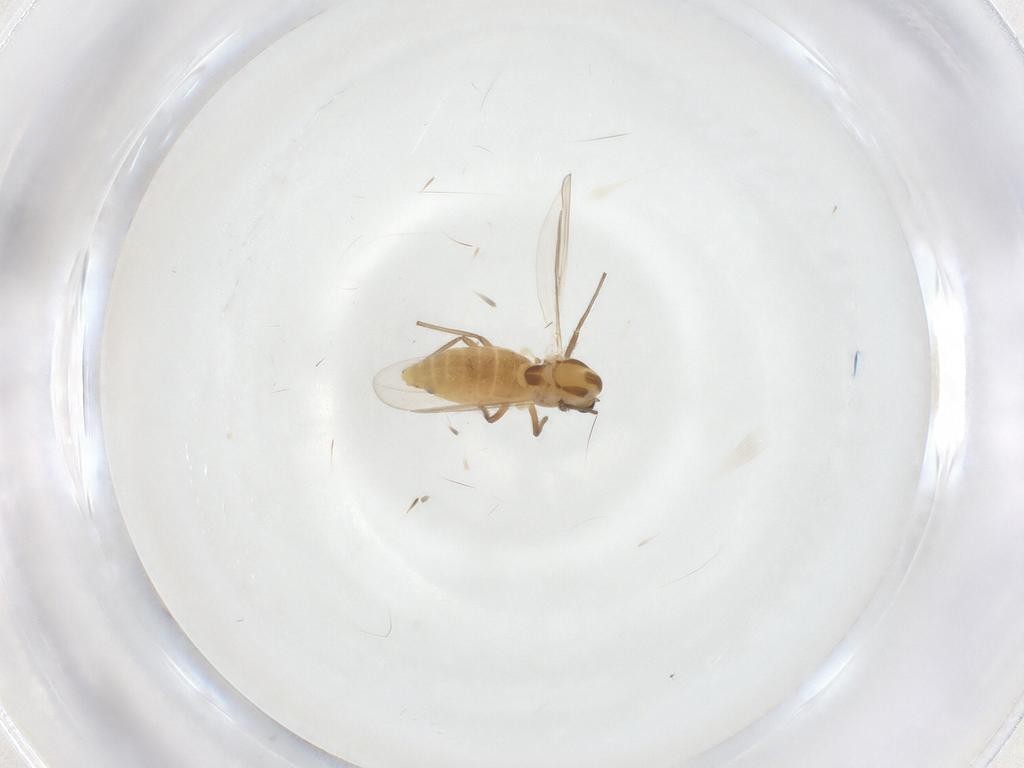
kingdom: Animalia
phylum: Arthropoda
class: Insecta
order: Diptera
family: Chironomidae
